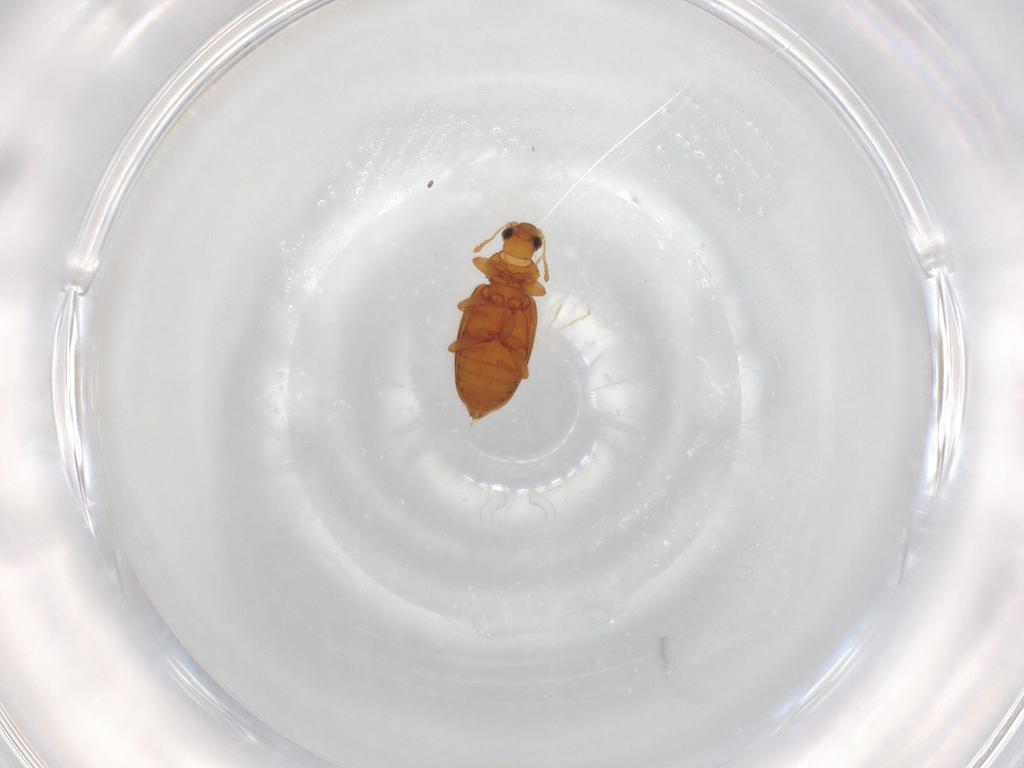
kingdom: Animalia
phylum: Arthropoda
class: Insecta
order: Coleoptera
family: Latridiidae
